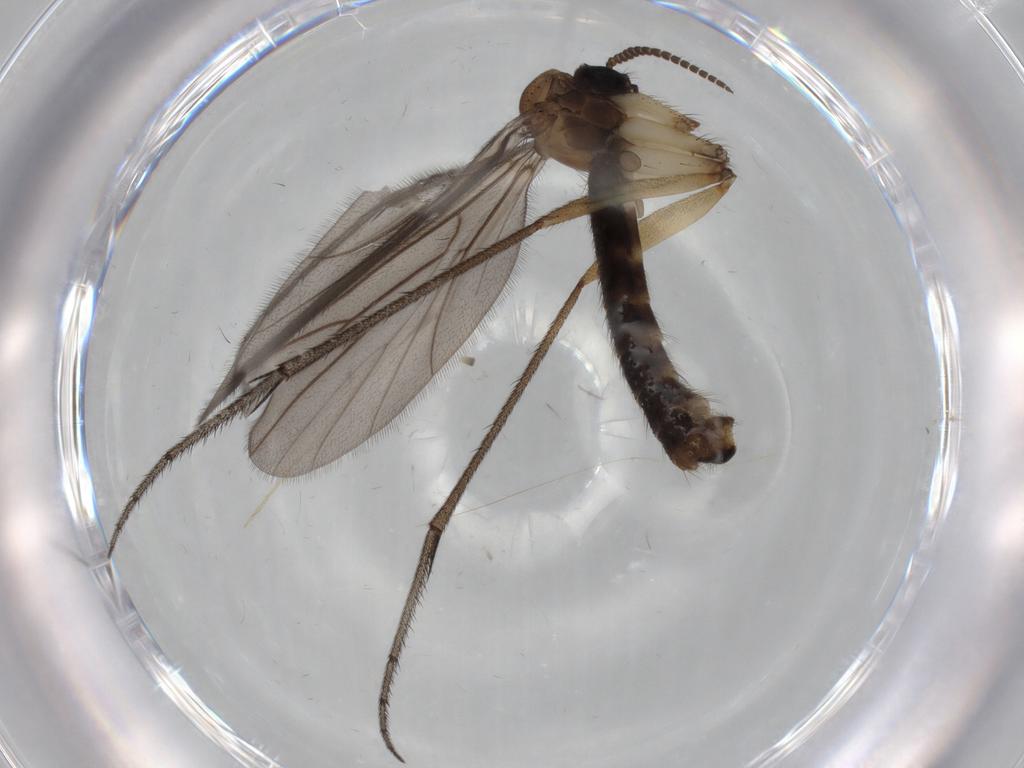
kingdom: Animalia
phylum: Arthropoda
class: Insecta
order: Diptera
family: Chironomidae
